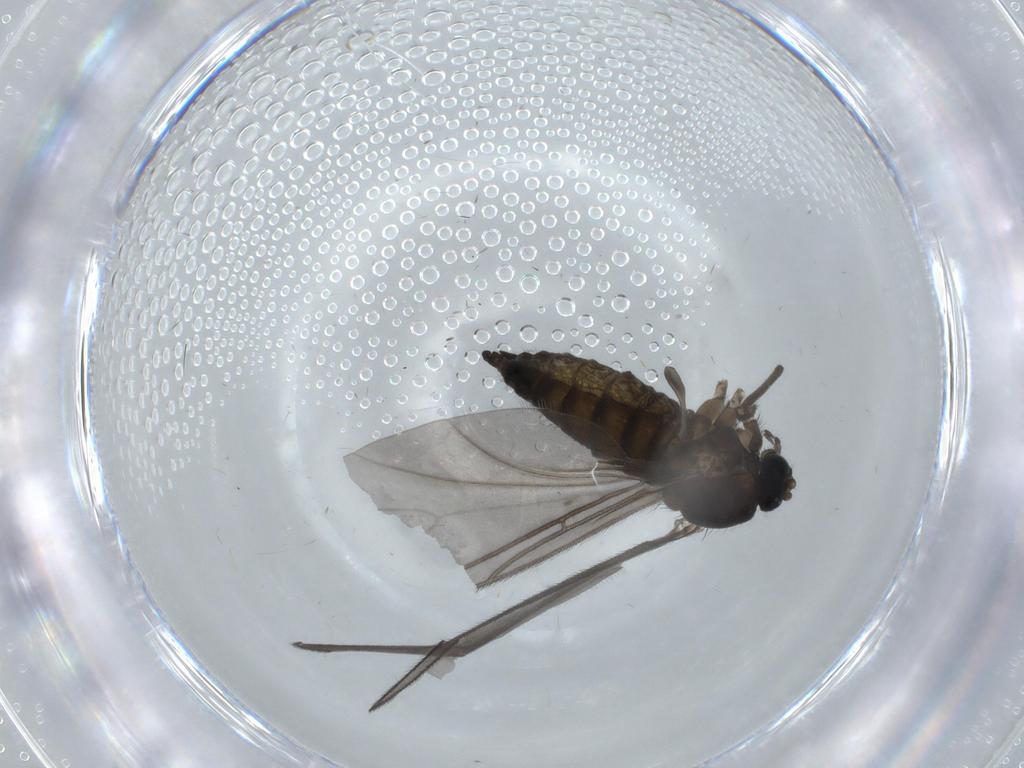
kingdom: Animalia
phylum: Arthropoda
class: Insecta
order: Diptera
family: Sciaridae
